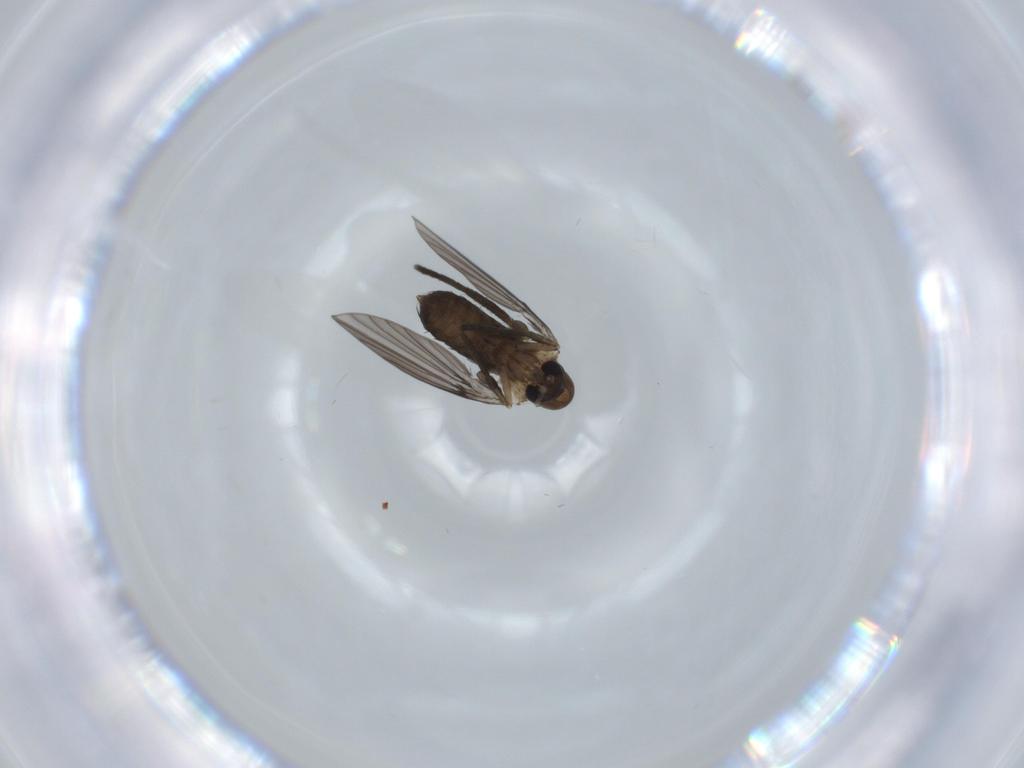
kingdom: Animalia
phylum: Arthropoda
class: Insecta
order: Diptera
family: Psychodidae
